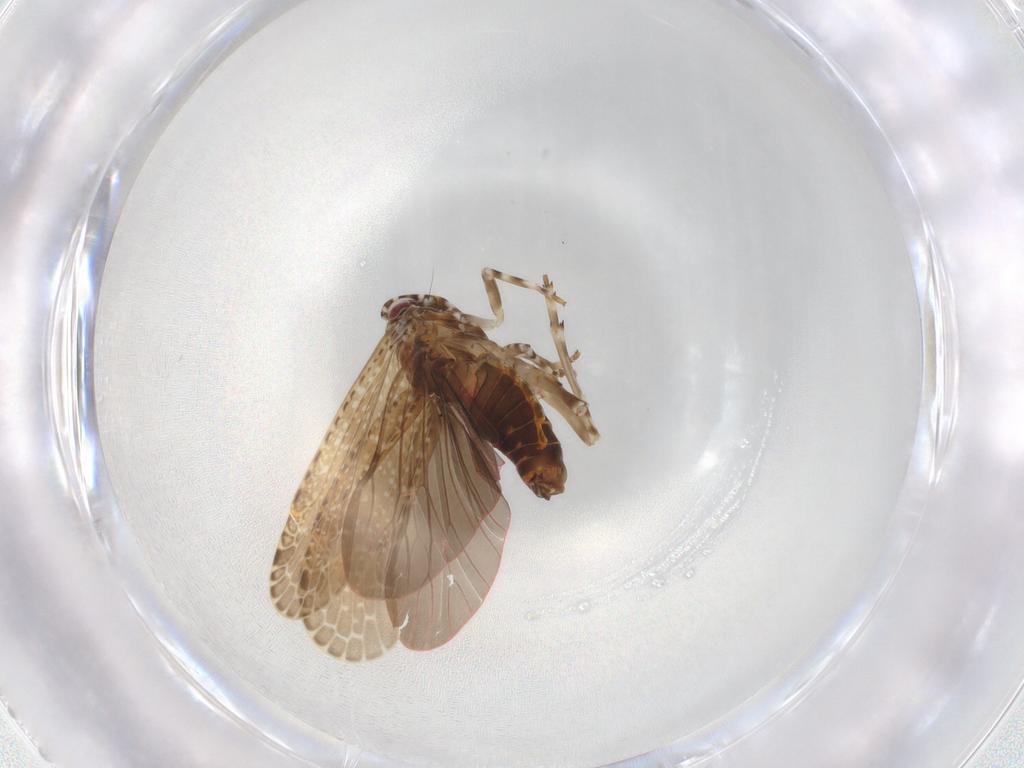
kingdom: Animalia
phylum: Arthropoda
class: Insecta
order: Hemiptera
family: Achilidae
